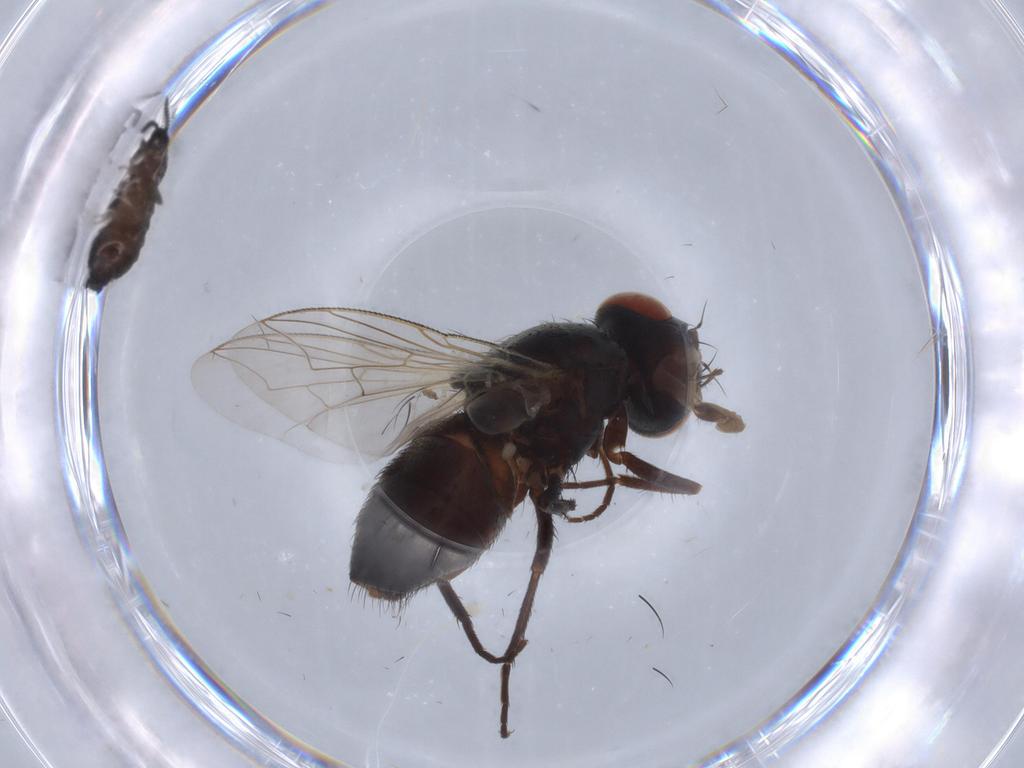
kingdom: Animalia
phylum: Arthropoda
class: Insecta
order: Diptera
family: Sarcophagidae
